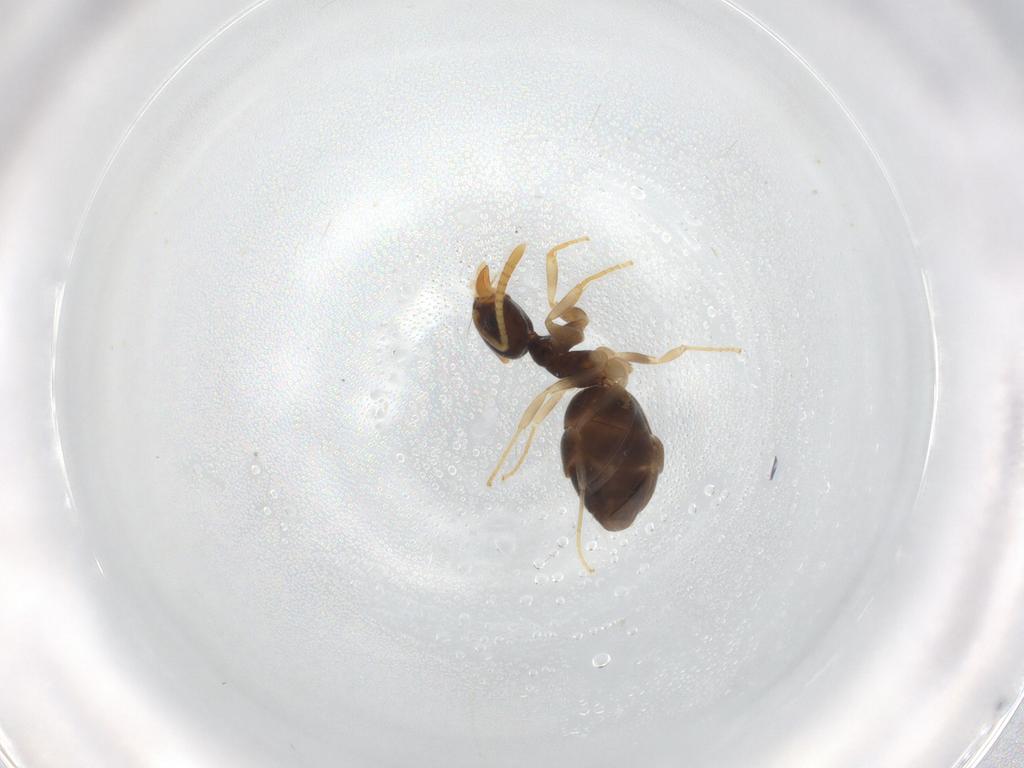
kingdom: Animalia
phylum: Arthropoda
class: Insecta
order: Hymenoptera
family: Formicidae
